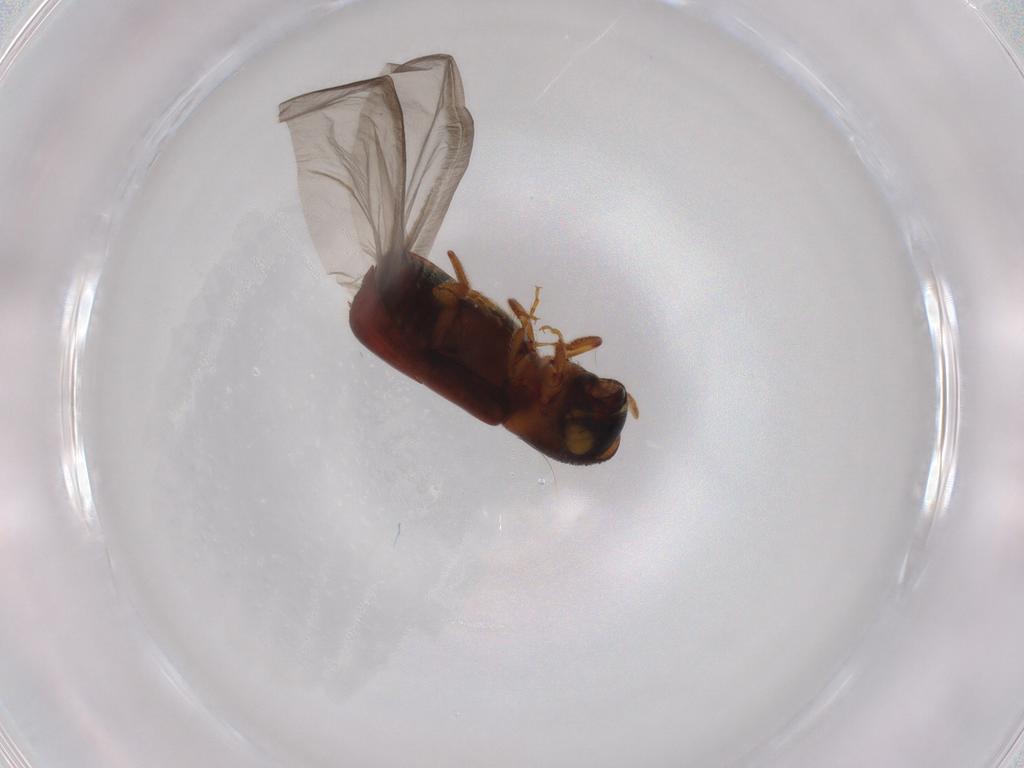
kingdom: Animalia
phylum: Arthropoda
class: Insecta
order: Coleoptera
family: Curculionidae
